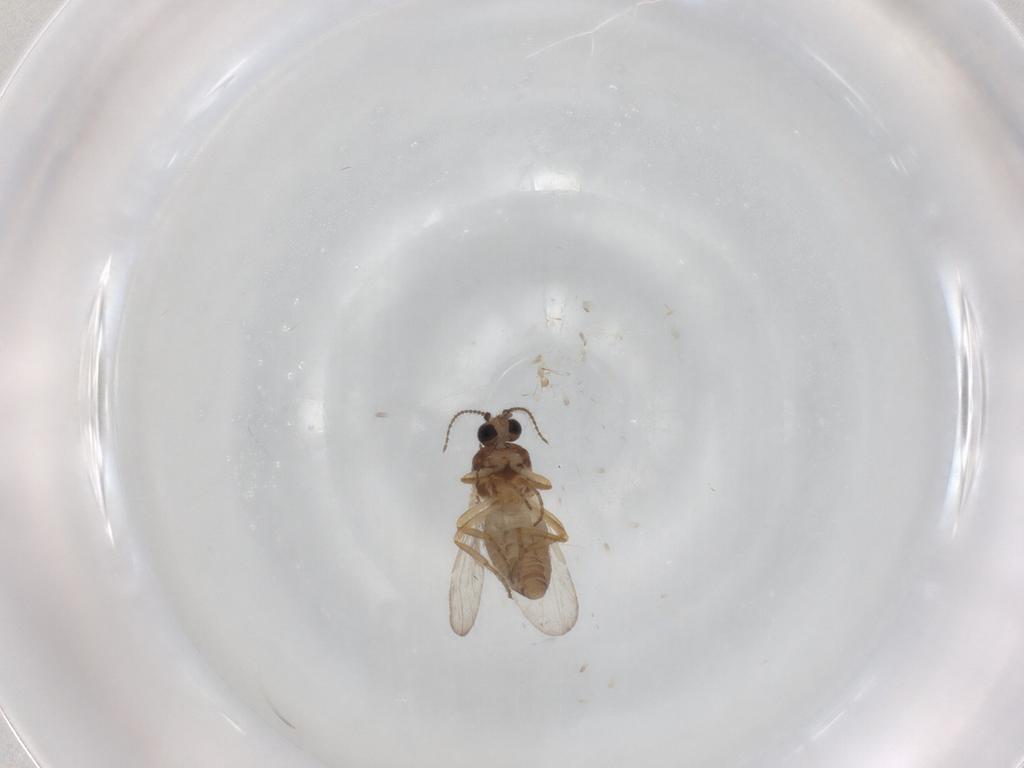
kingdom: Animalia
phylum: Arthropoda
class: Insecta
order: Diptera
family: Ceratopogonidae
